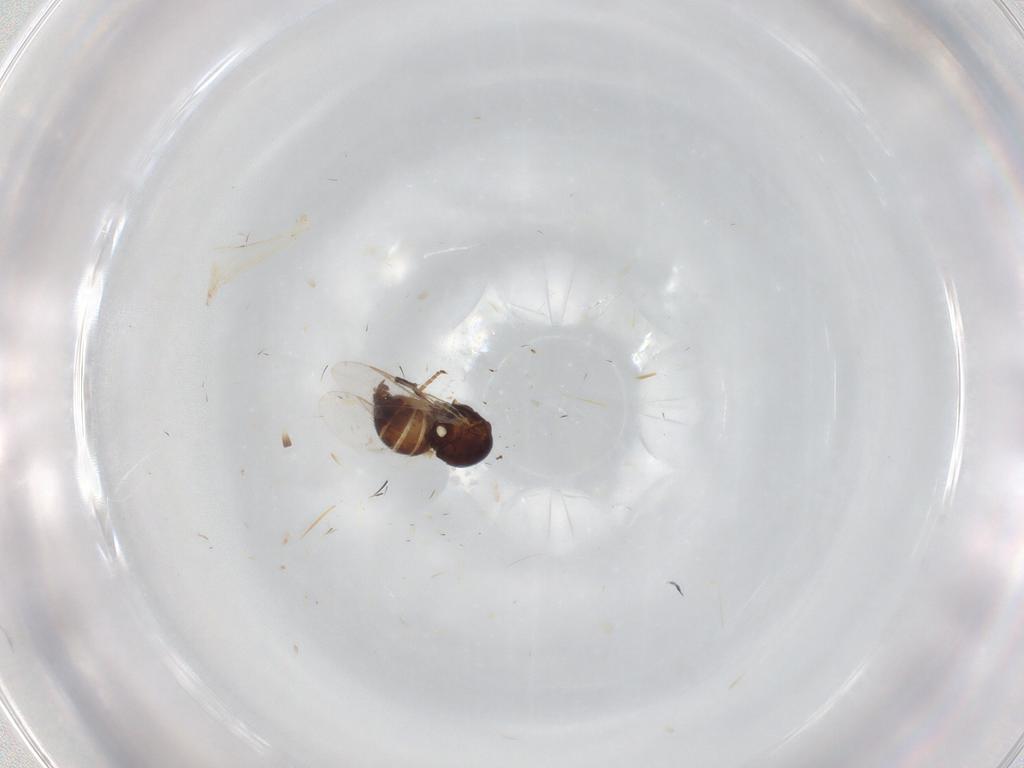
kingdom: Animalia
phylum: Arthropoda
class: Insecta
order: Diptera
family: Agromyzidae
